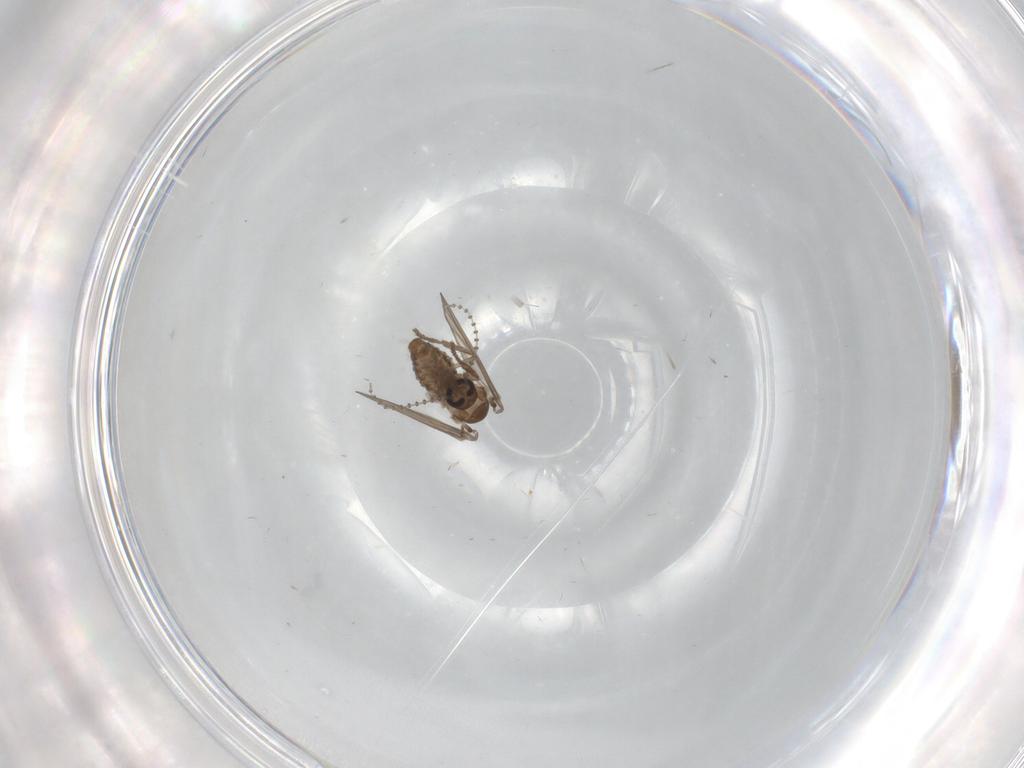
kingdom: Animalia
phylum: Arthropoda
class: Insecta
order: Diptera
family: Psychodidae
